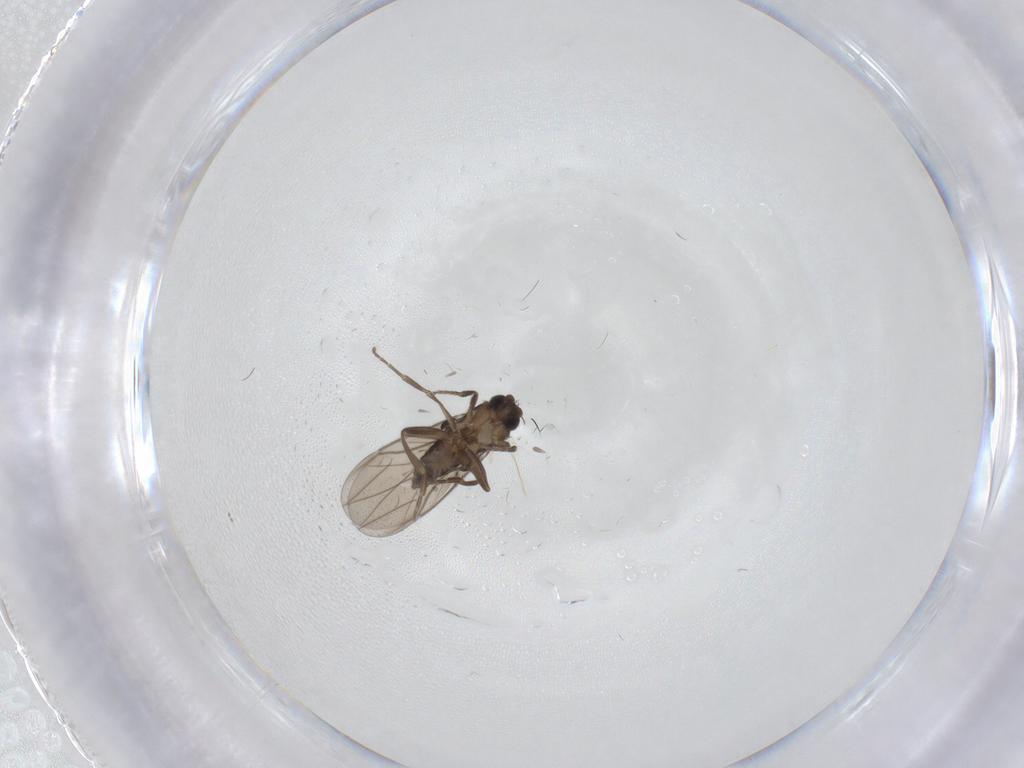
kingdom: Animalia
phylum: Arthropoda
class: Insecta
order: Diptera
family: Phoridae
